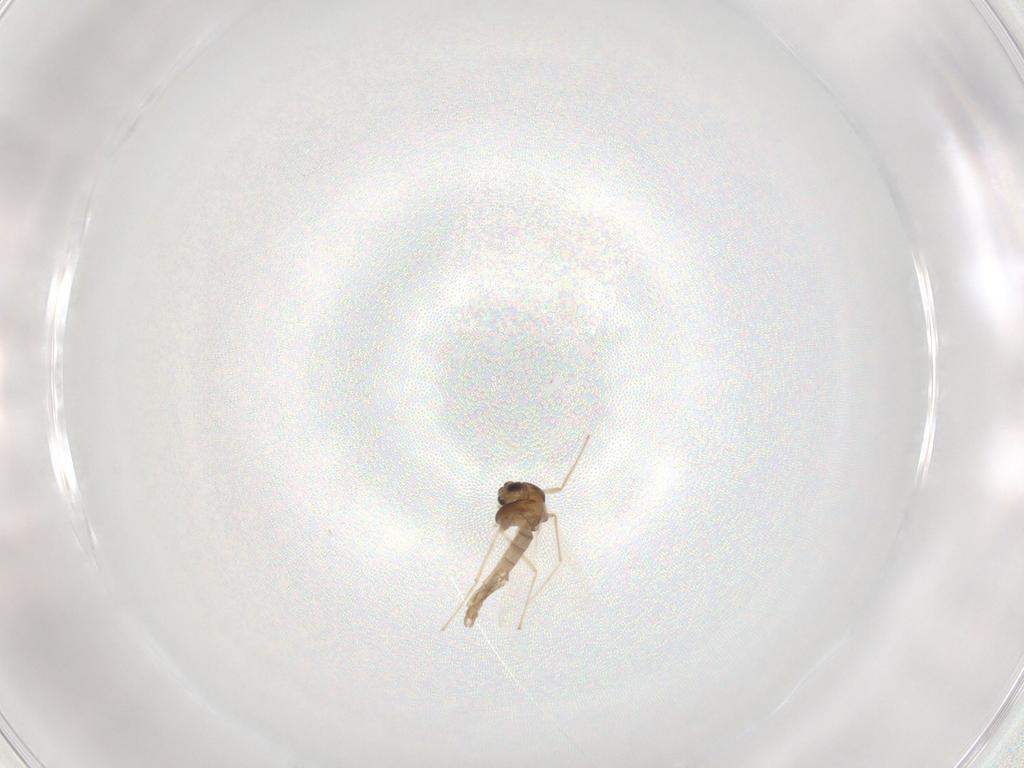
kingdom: Animalia
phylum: Arthropoda
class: Insecta
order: Diptera
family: Chironomidae
